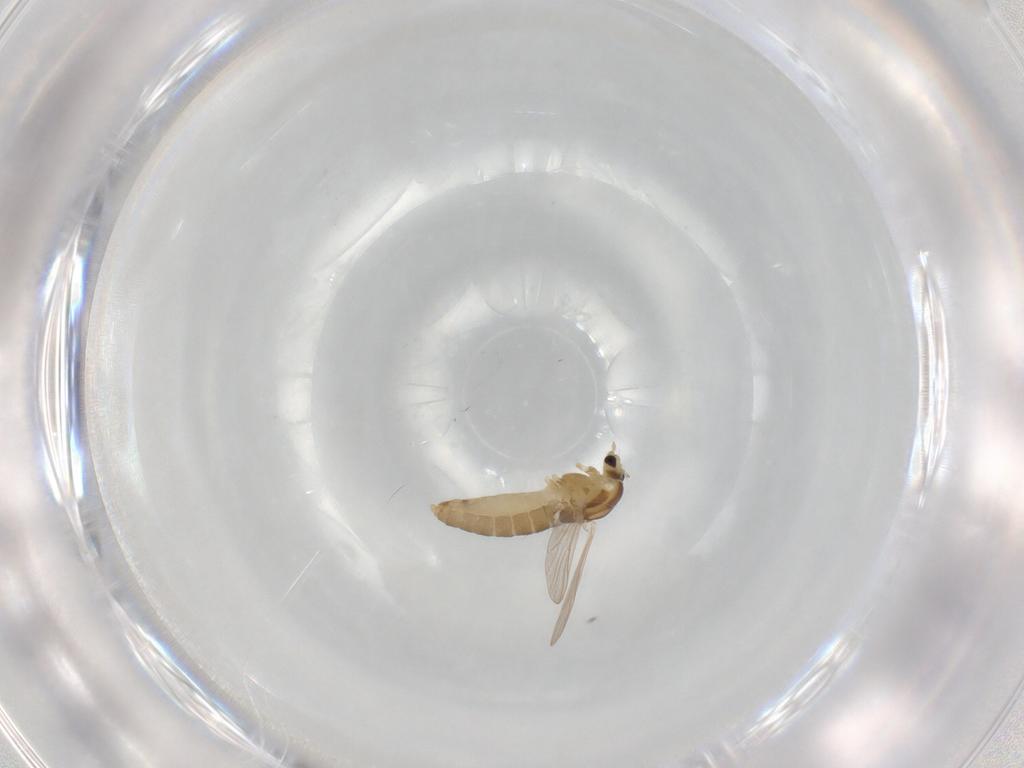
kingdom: Animalia
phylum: Arthropoda
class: Insecta
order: Diptera
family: Chironomidae
